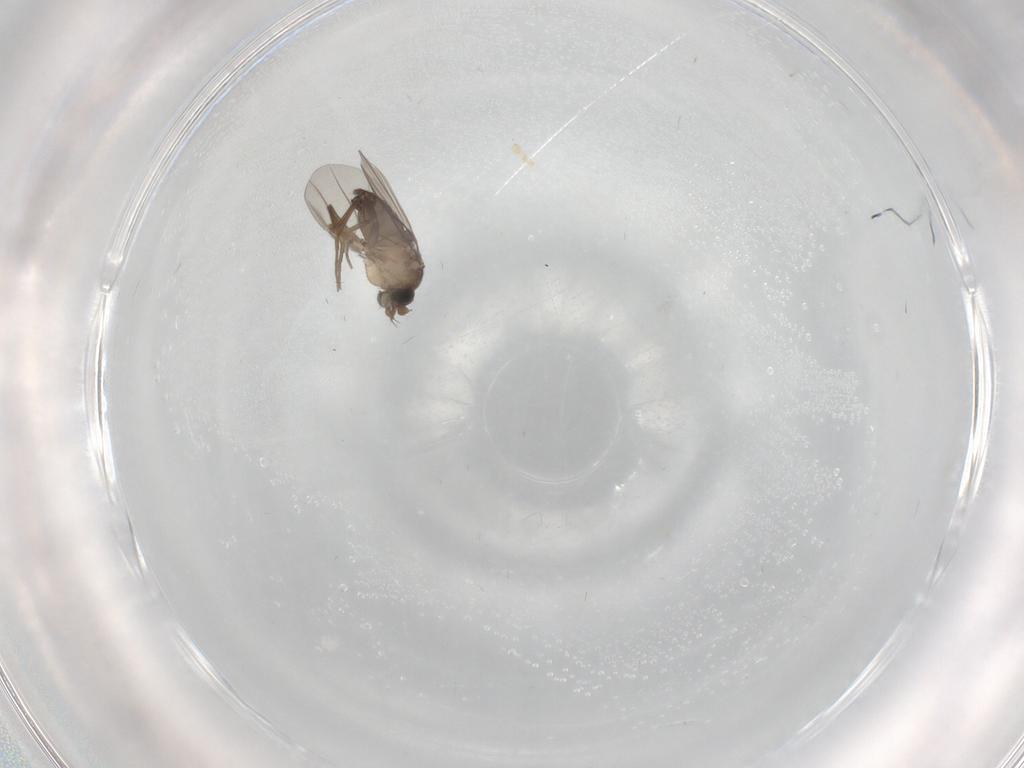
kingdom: Animalia
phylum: Arthropoda
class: Insecta
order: Diptera
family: Phoridae
